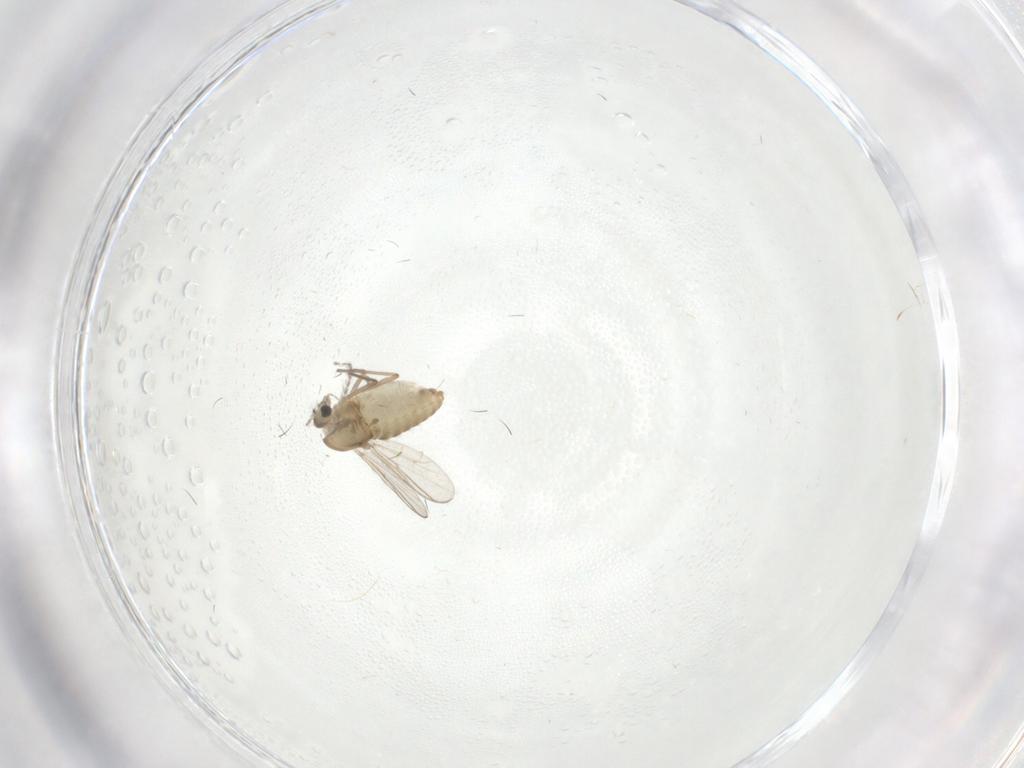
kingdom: Animalia
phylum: Arthropoda
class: Insecta
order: Diptera
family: Chironomidae
